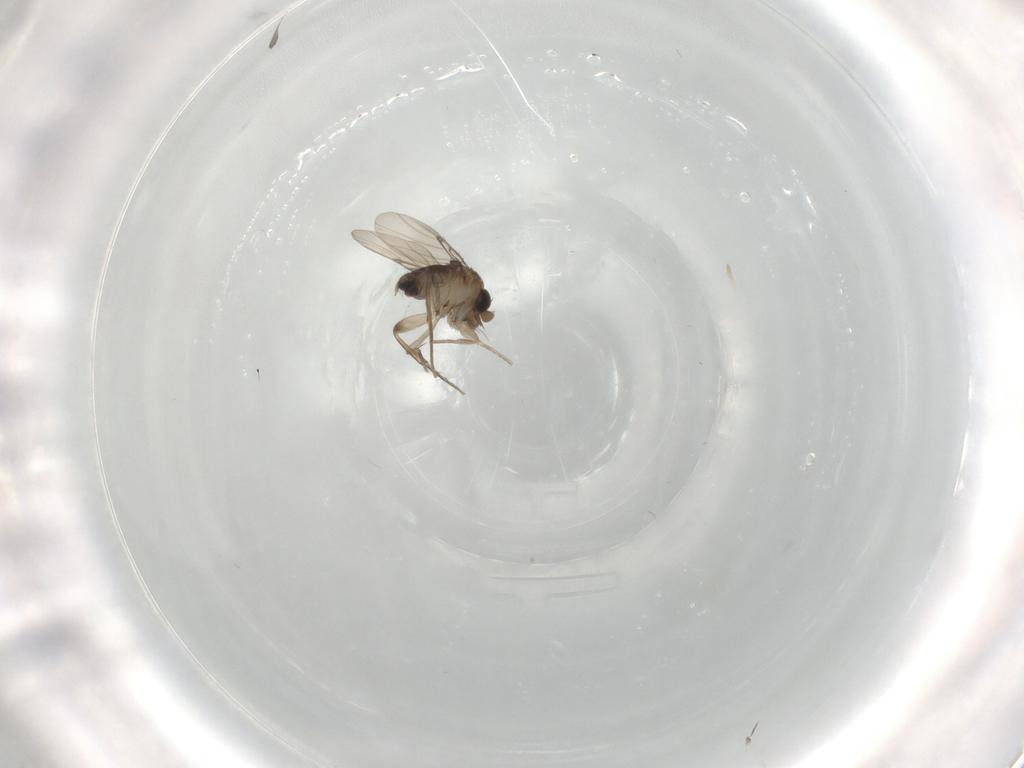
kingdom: Animalia
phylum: Arthropoda
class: Insecta
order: Diptera
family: Phoridae
